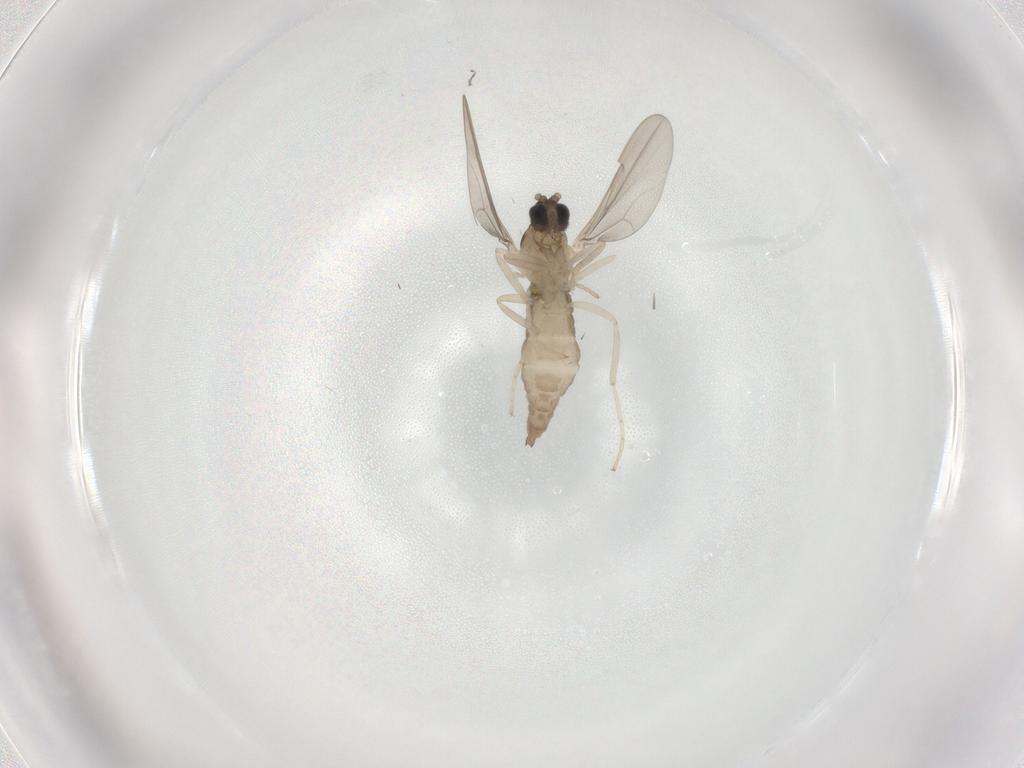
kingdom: Animalia
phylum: Arthropoda
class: Insecta
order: Diptera
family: Cecidomyiidae
